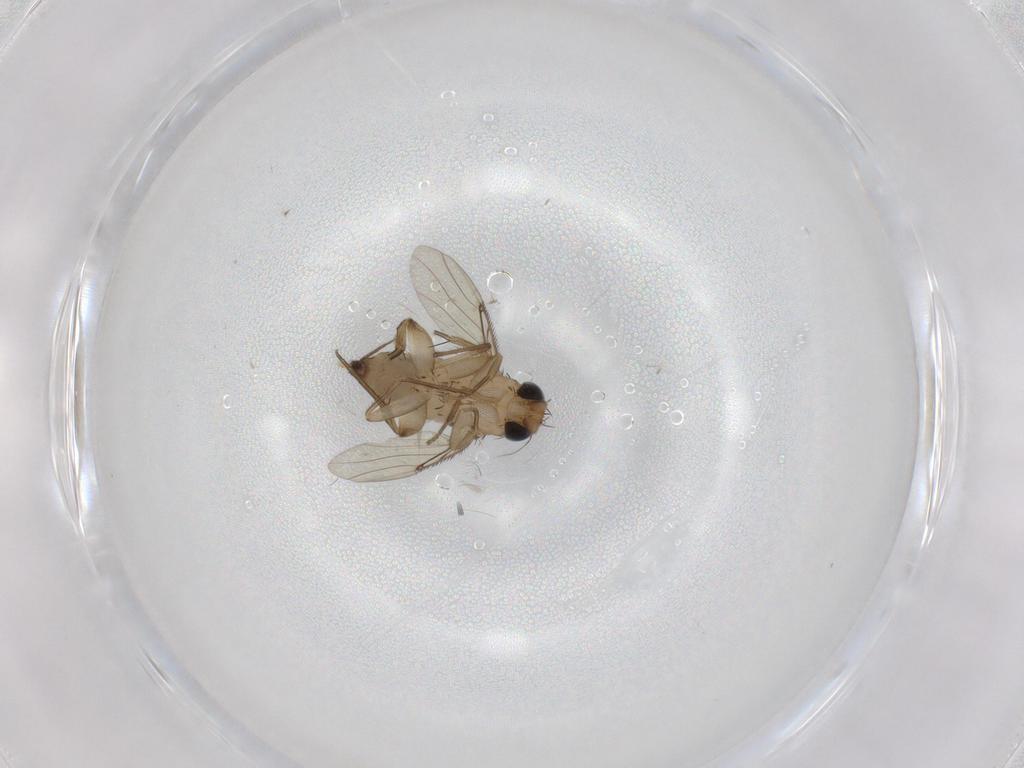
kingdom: Animalia
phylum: Arthropoda
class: Insecta
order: Diptera
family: Phoridae
